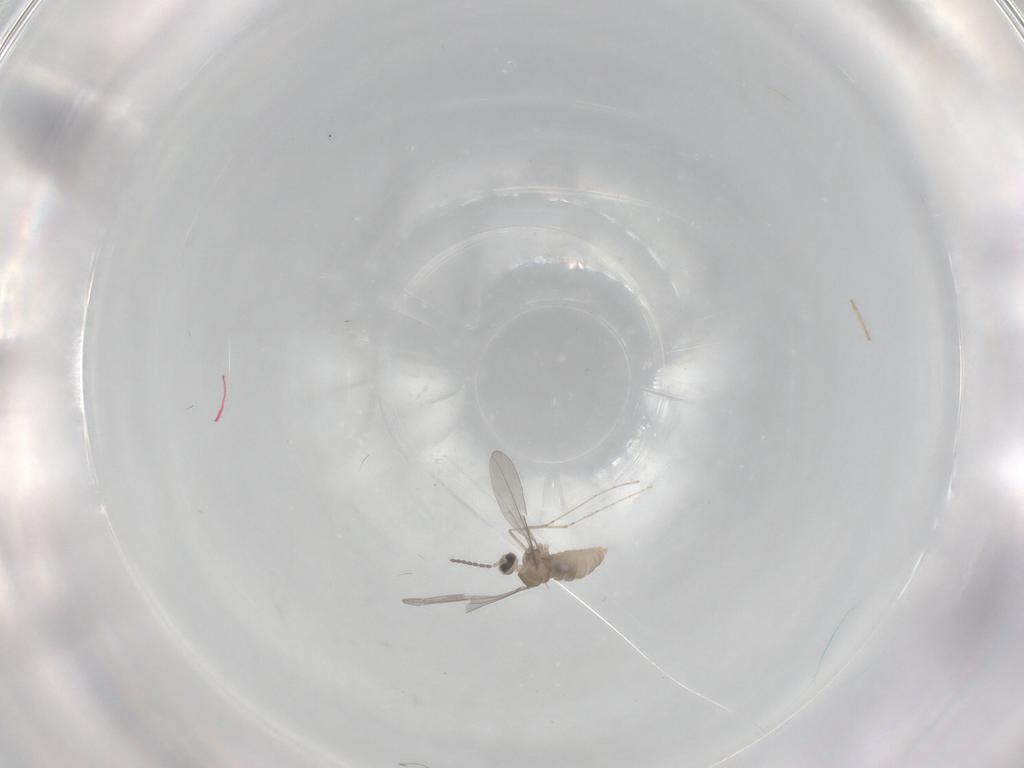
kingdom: Animalia
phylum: Arthropoda
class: Insecta
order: Diptera
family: Cecidomyiidae
